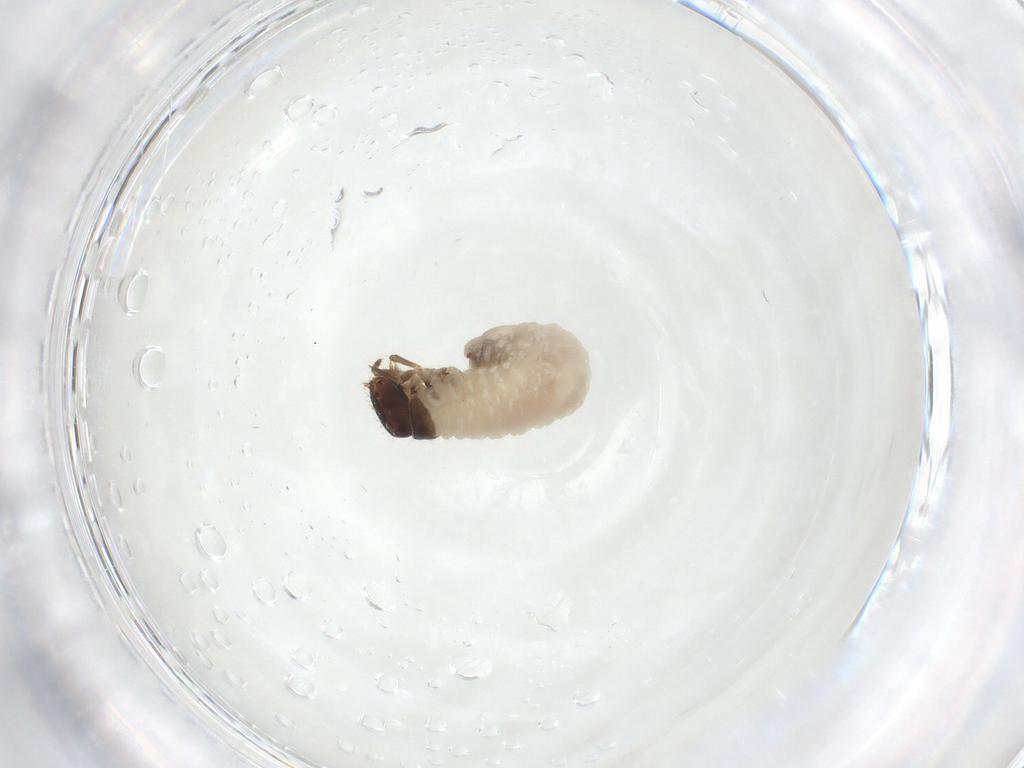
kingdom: Animalia
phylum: Arthropoda
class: Insecta
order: Coleoptera
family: Chrysomelidae
